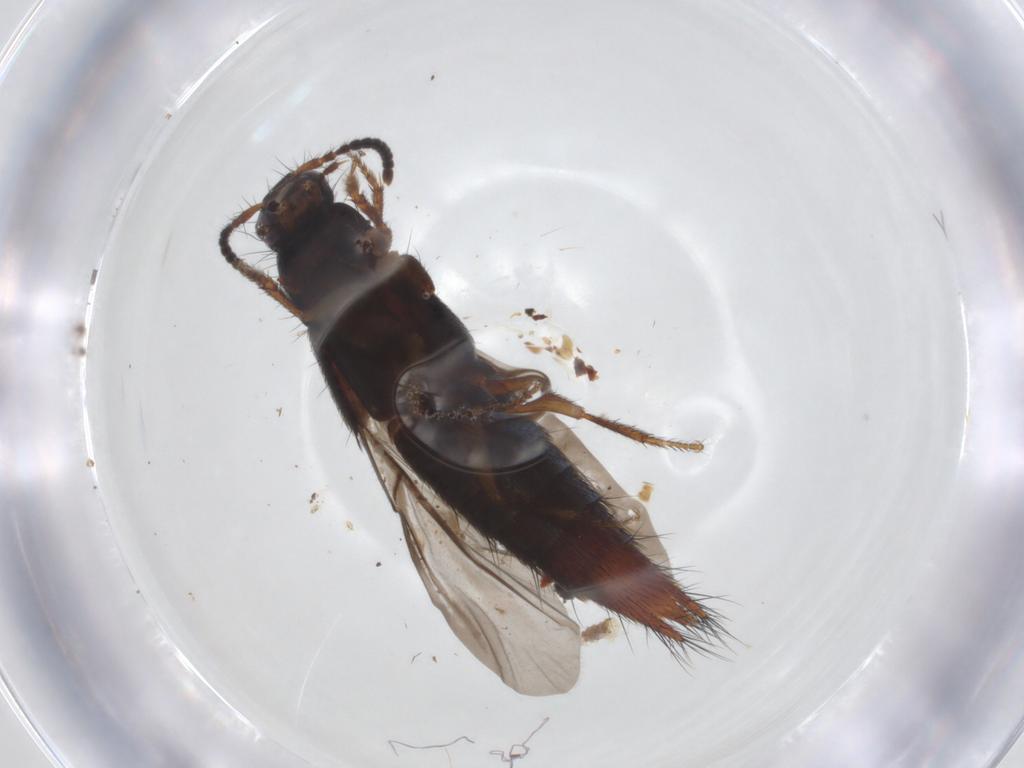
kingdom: Animalia
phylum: Arthropoda
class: Insecta
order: Coleoptera
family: Staphylinidae
